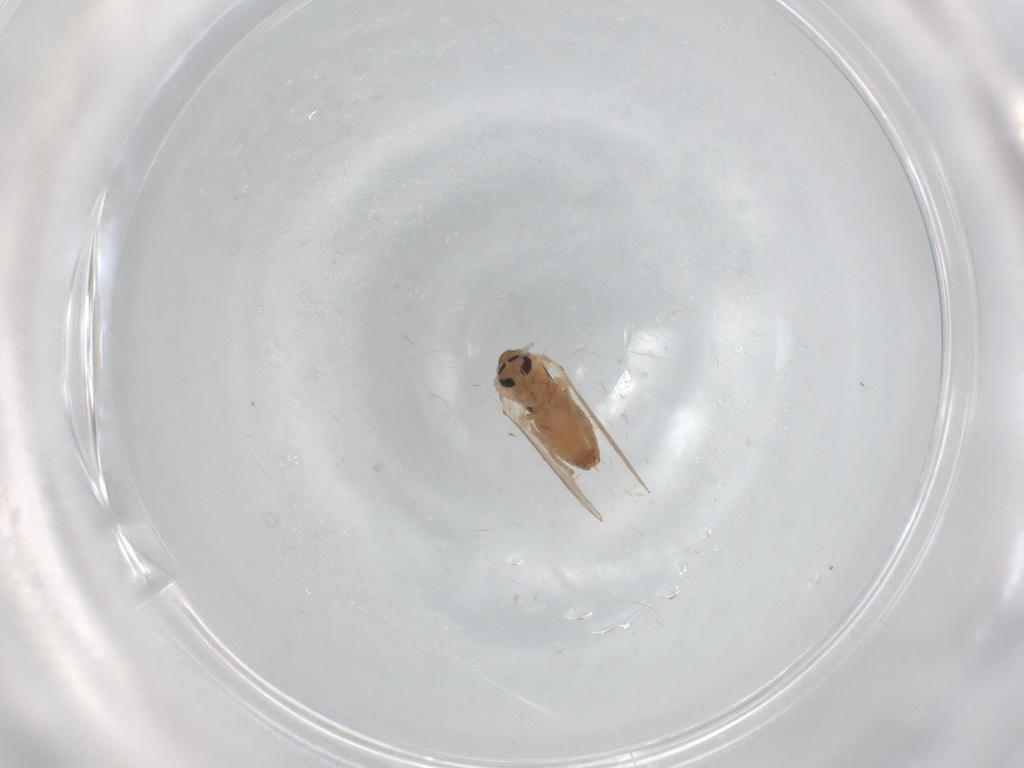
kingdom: Animalia
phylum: Arthropoda
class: Insecta
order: Diptera
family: Psychodidae
